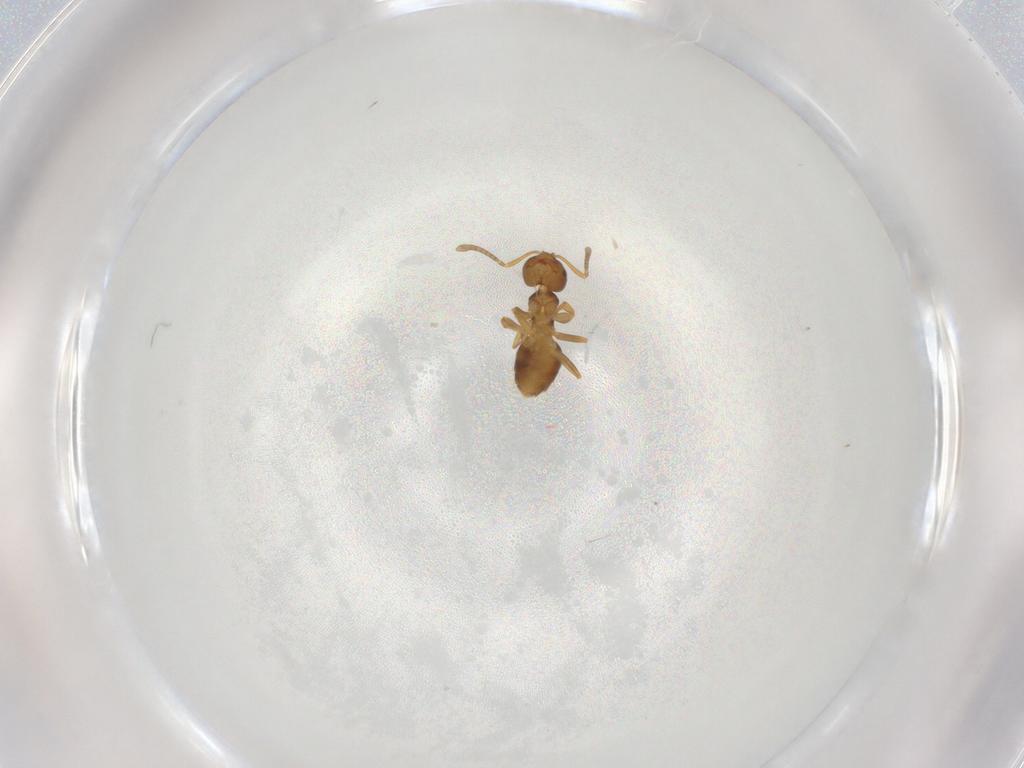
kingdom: Animalia
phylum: Arthropoda
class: Insecta
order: Hymenoptera
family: Formicidae
